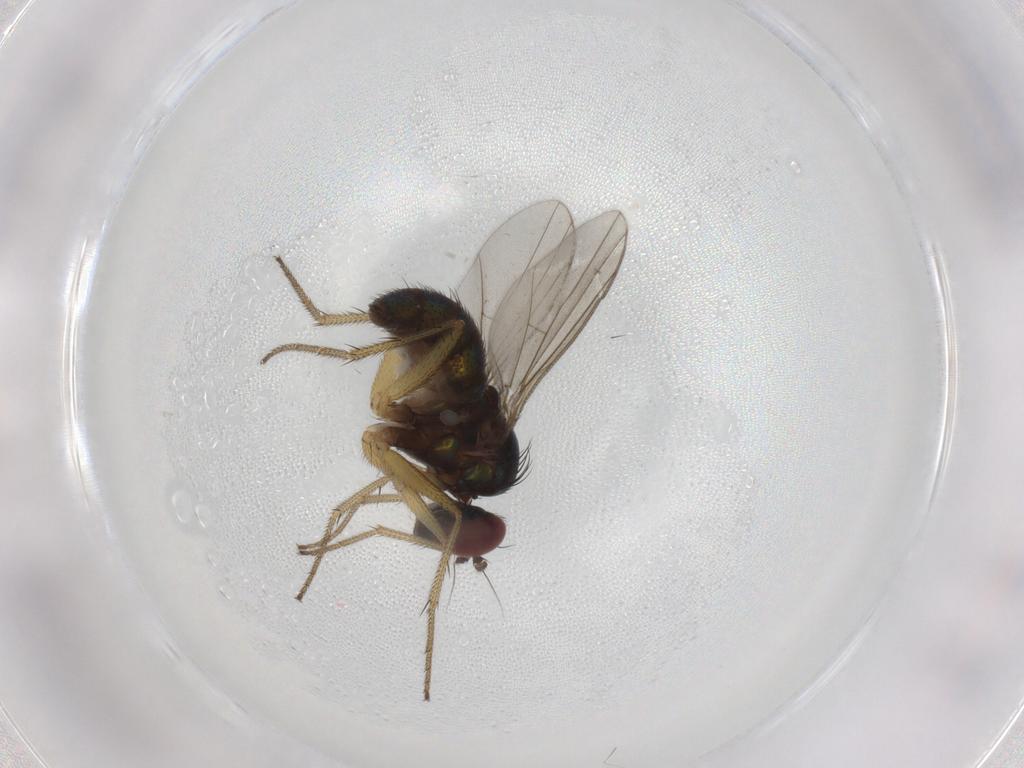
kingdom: Animalia
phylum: Arthropoda
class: Insecta
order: Diptera
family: Dolichopodidae
